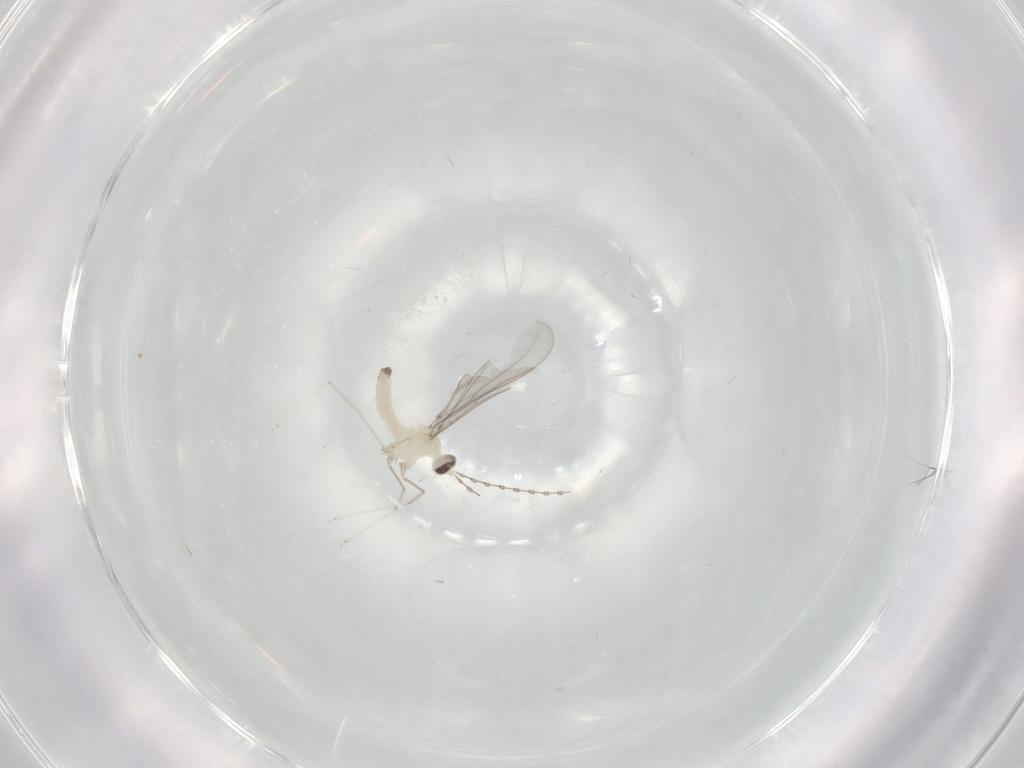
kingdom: Animalia
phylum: Arthropoda
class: Insecta
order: Diptera
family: Cecidomyiidae
